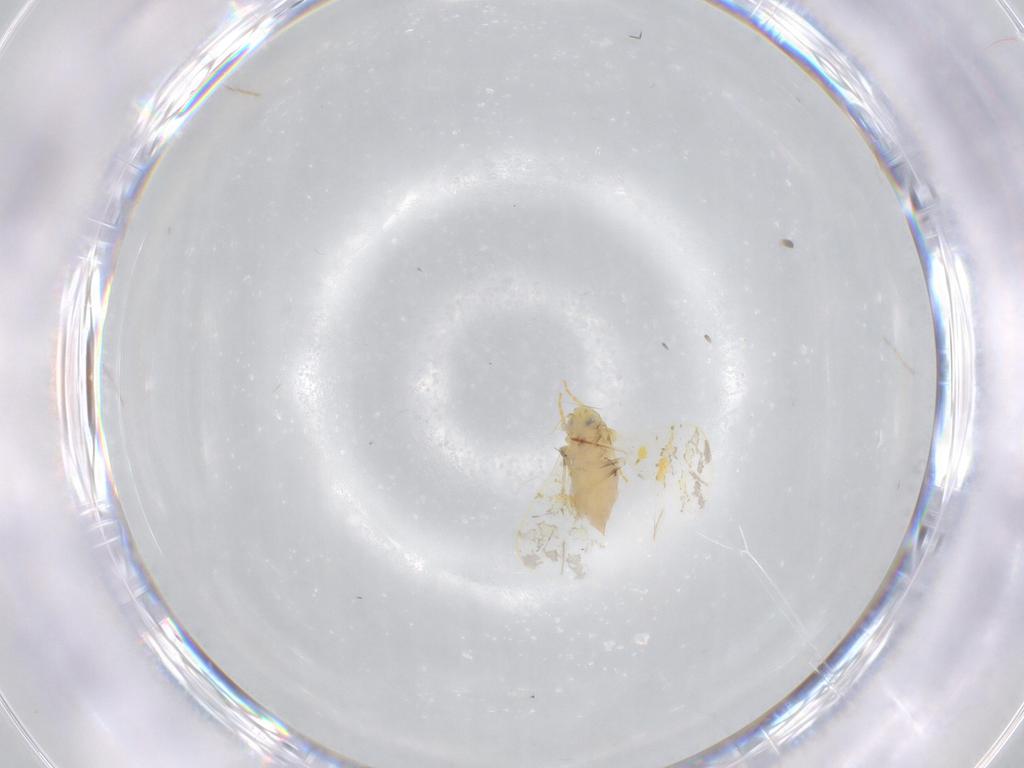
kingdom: Animalia
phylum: Arthropoda
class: Insecta
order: Hemiptera
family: Aleyrodidae
